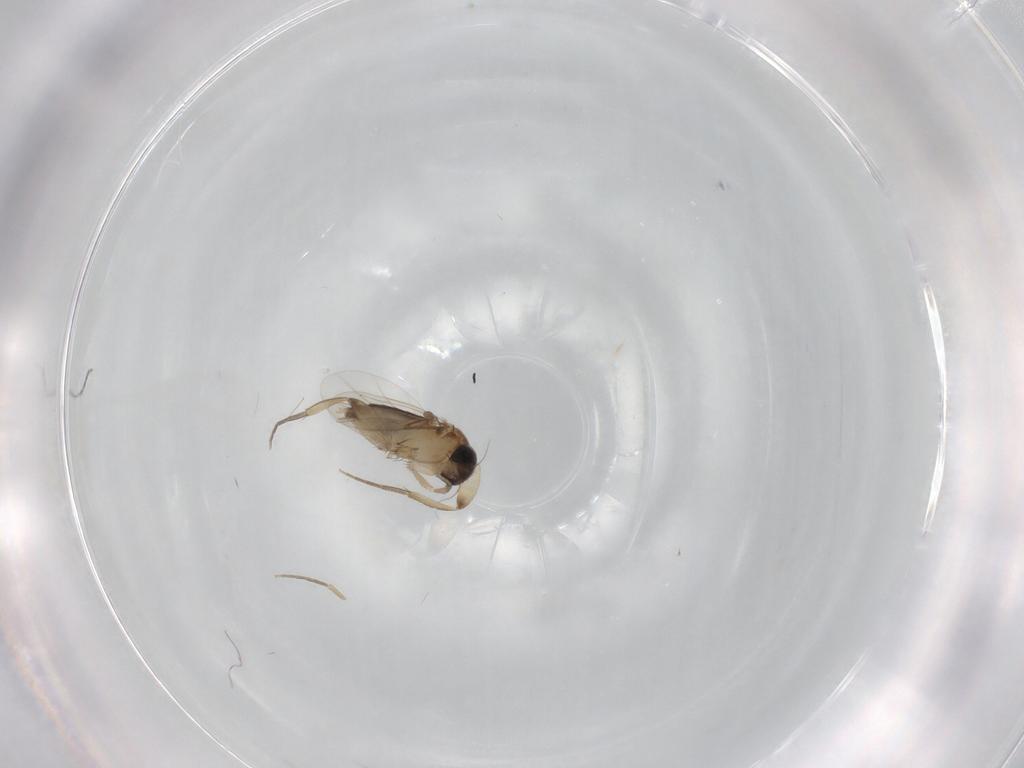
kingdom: Animalia
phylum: Arthropoda
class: Insecta
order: Diptera
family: Phoridae
